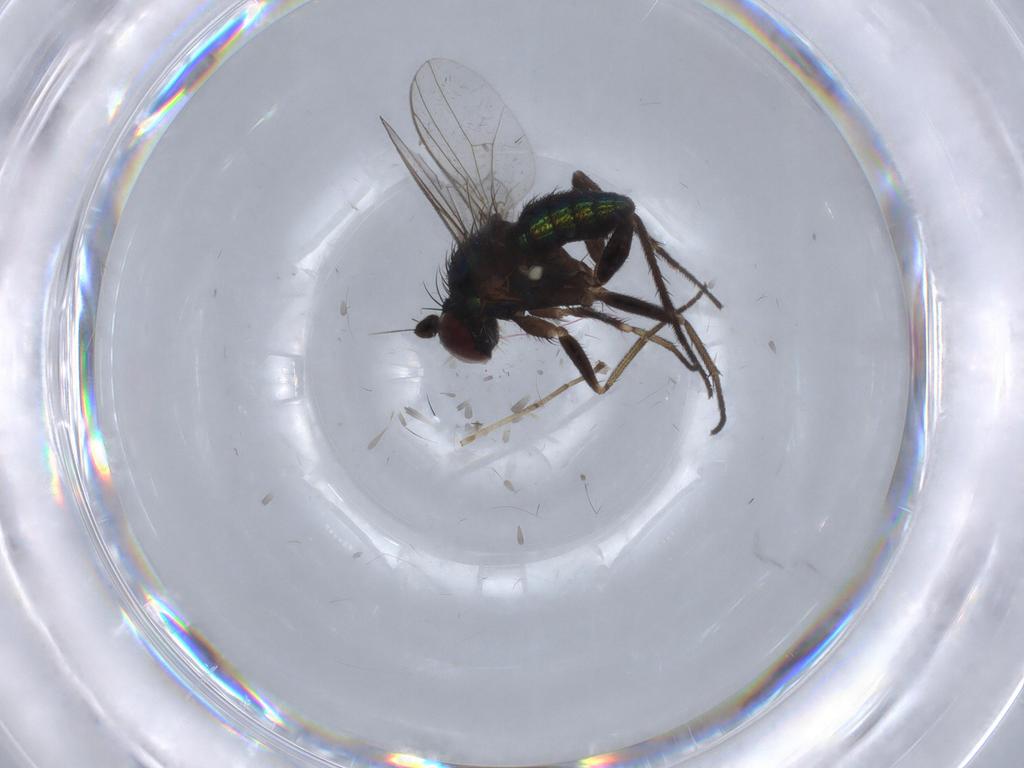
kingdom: Animalia
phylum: Arthropoda
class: Insecta
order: Diptera
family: Dolichopodidae
